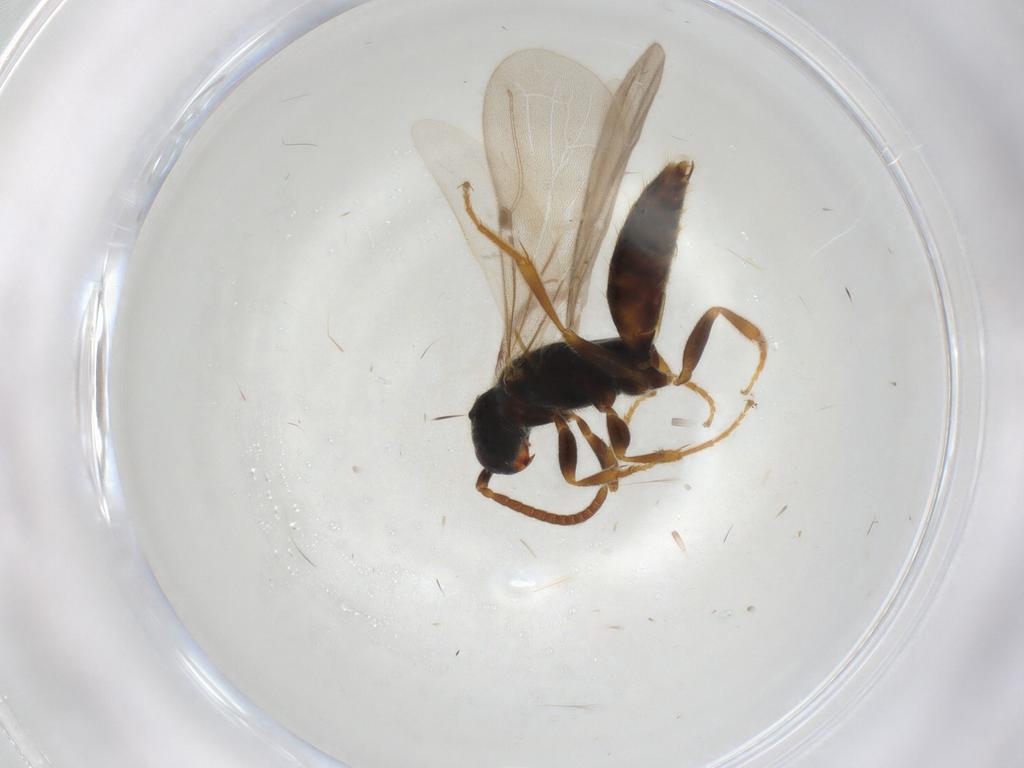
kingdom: Animalia
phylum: Arthropoda
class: Insecta
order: Hymenoptera
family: Bethylidae
